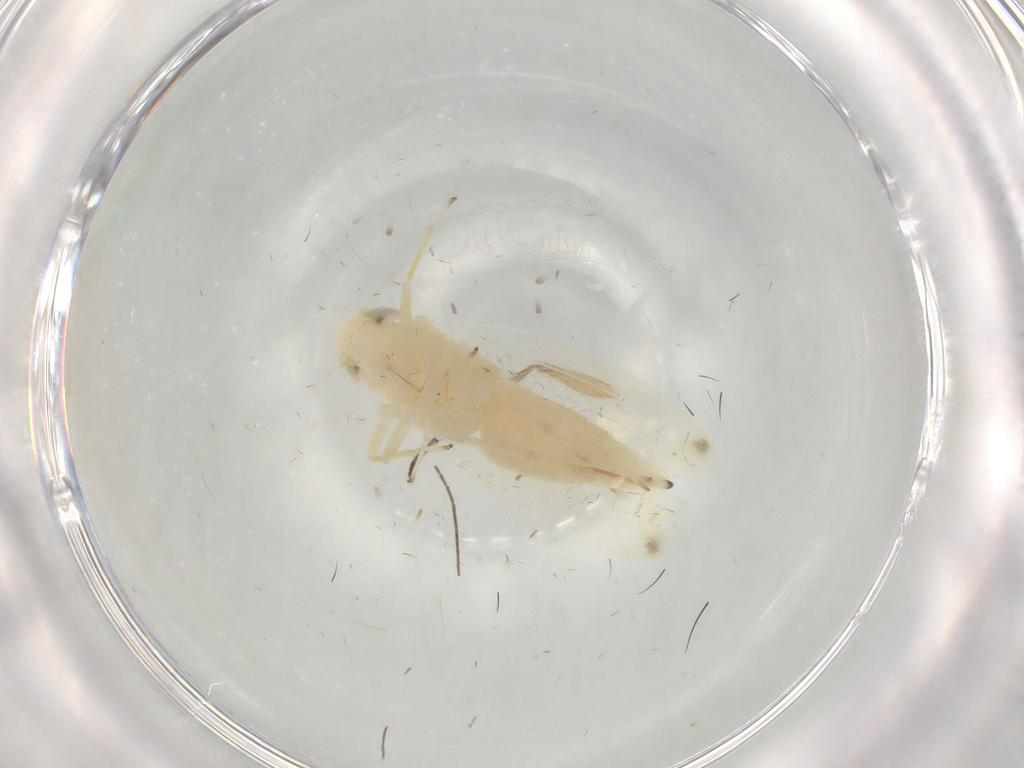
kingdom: Animalia
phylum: Arthropoda
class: Insecta
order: Hemiptera
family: Cicadellidae
